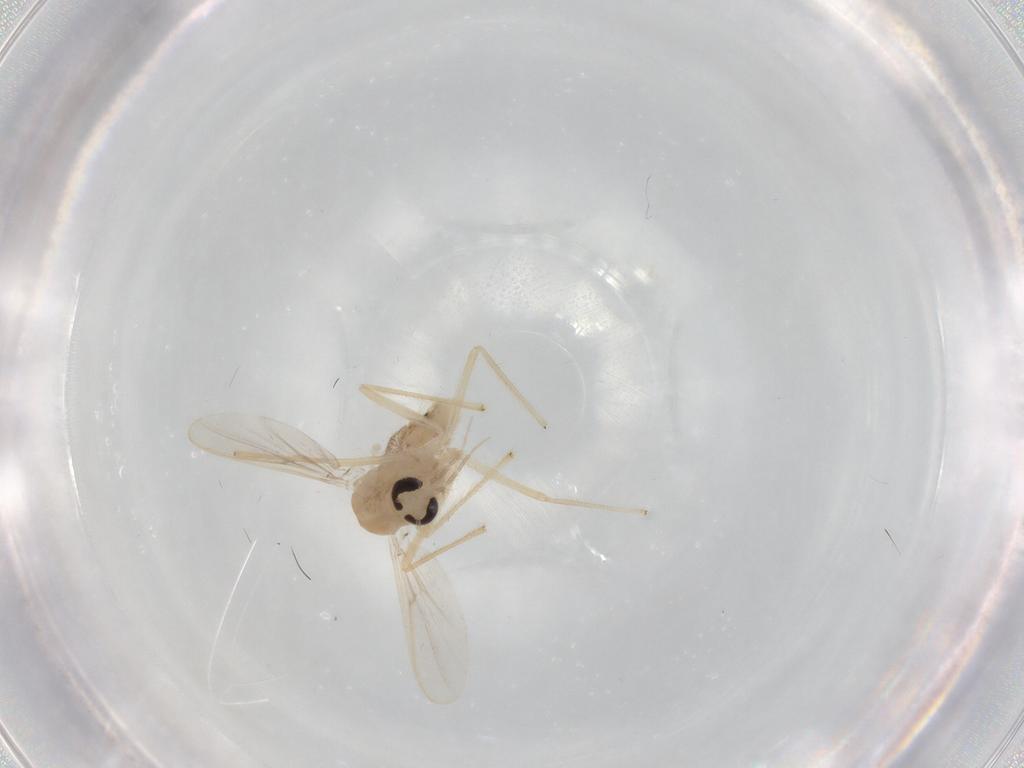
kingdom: Animalia
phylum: Arthropoda
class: Insecta
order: Diptera
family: Chironomidae
